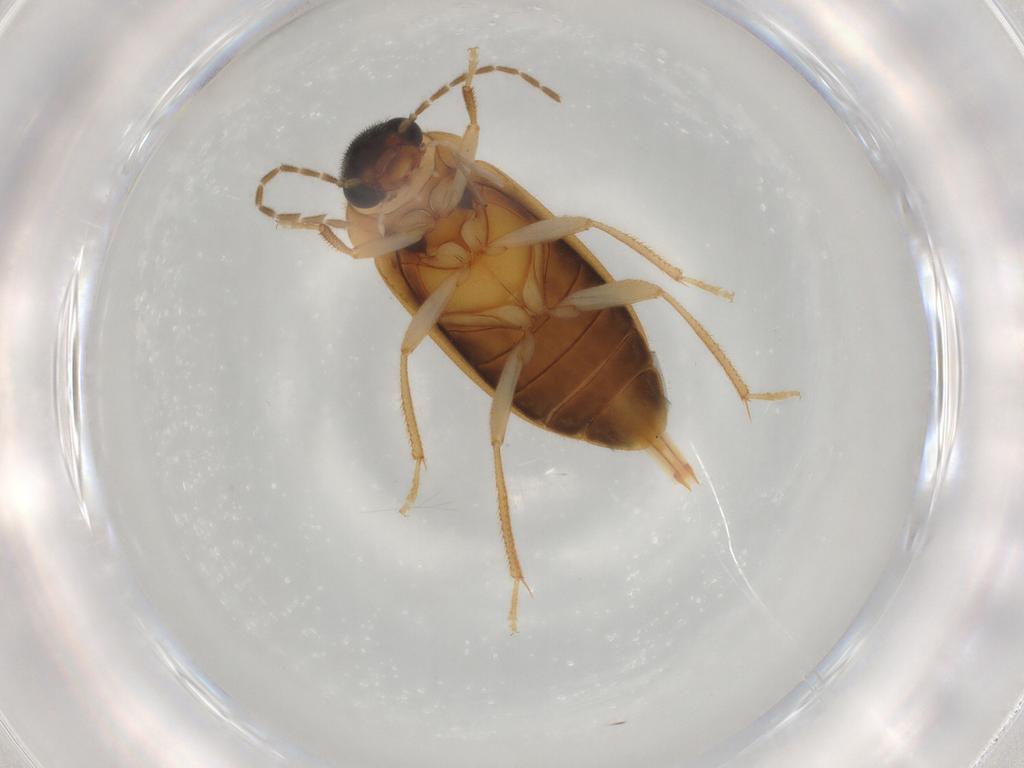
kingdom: Animalia
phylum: Arthropoda
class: Insecta
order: Coleoptera
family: Ptilodactylidae
